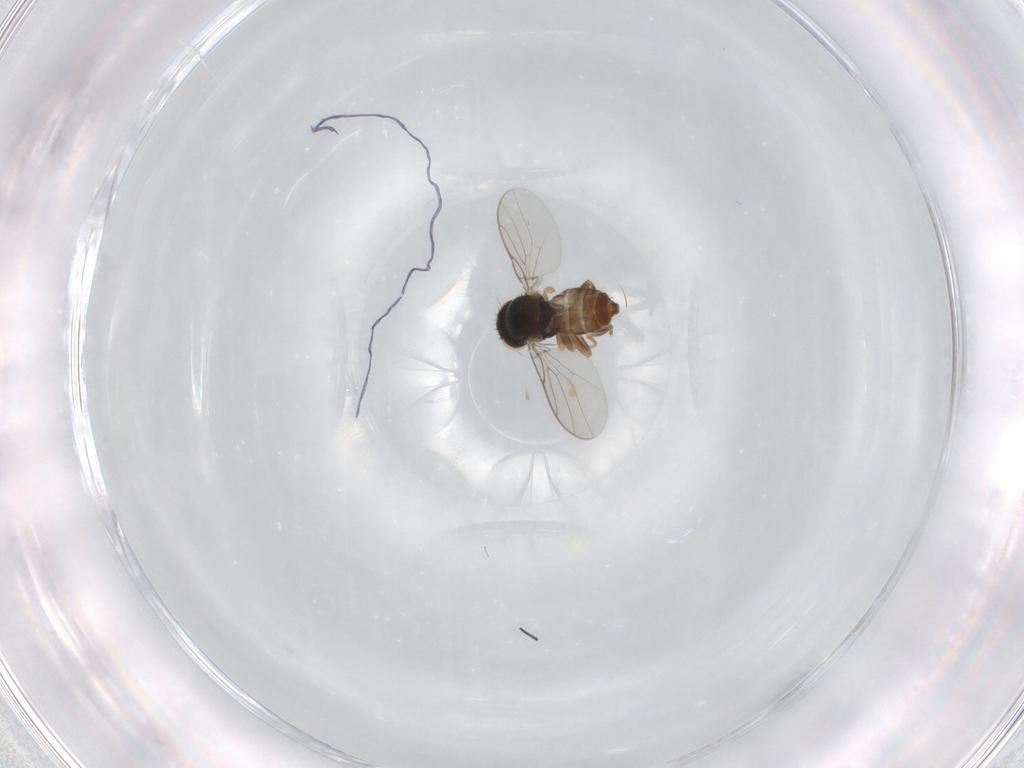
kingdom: Animalia
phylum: Arthropoda
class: Insecta
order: Diptera
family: Chloropidae
